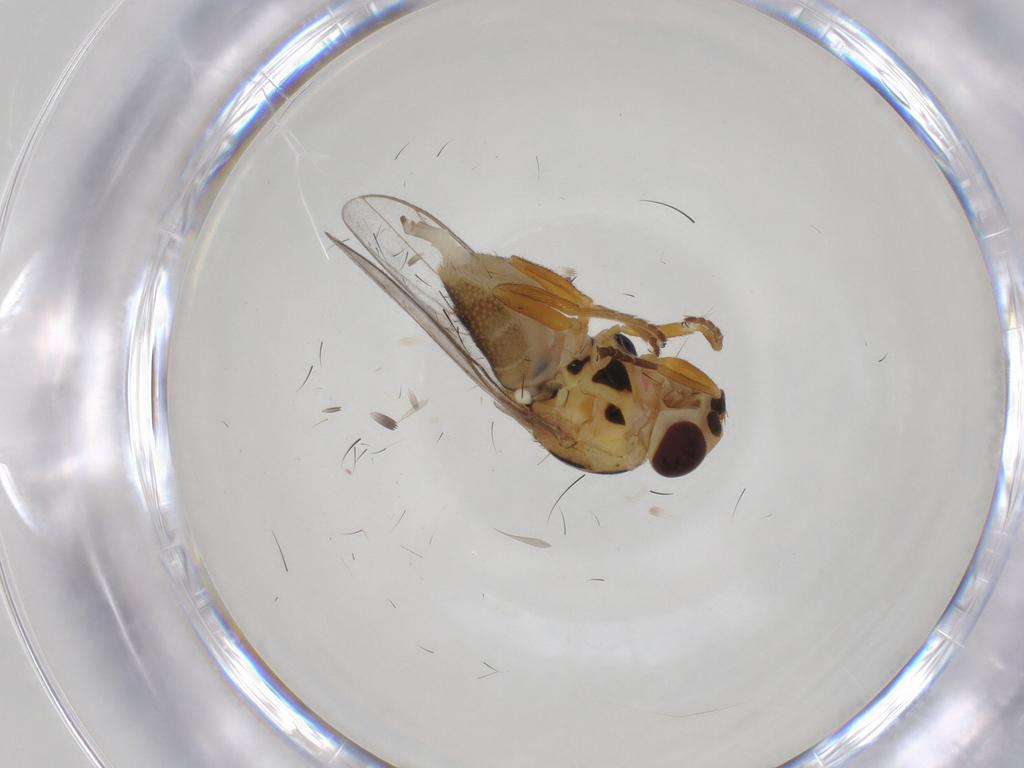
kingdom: Animalia
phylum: Arthropoda
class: Insecta
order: Diptera
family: Chloropidae
